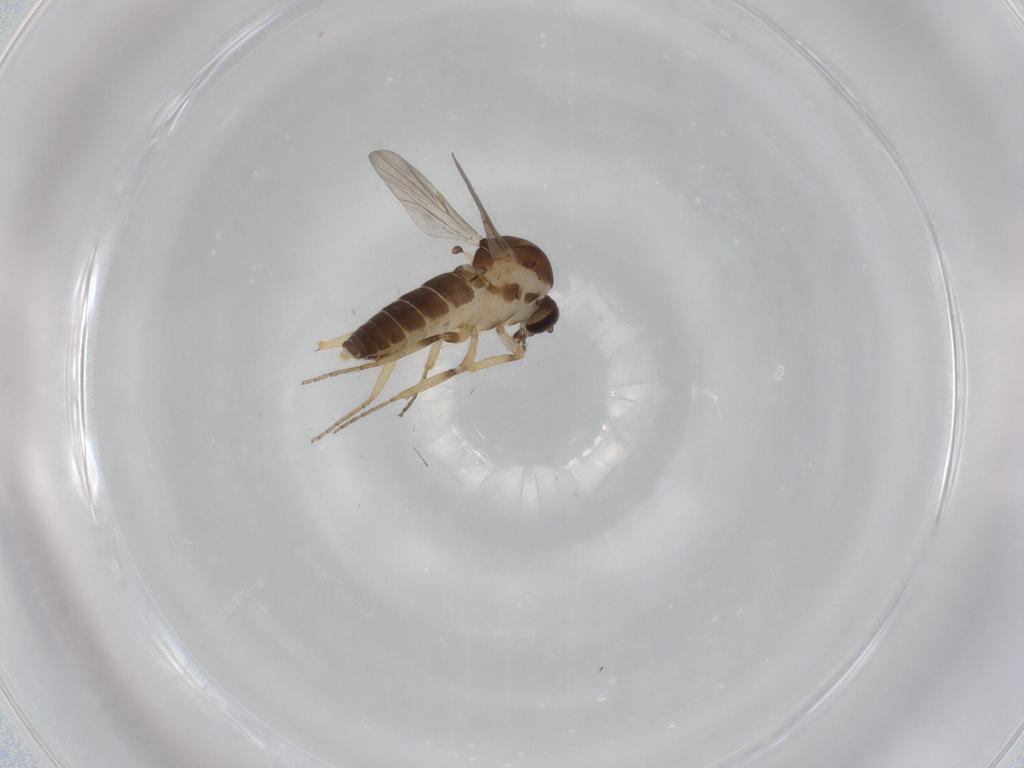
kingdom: Animalia
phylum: Arthropoda
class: Insecta
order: Diptera
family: Ceratopogonidae
